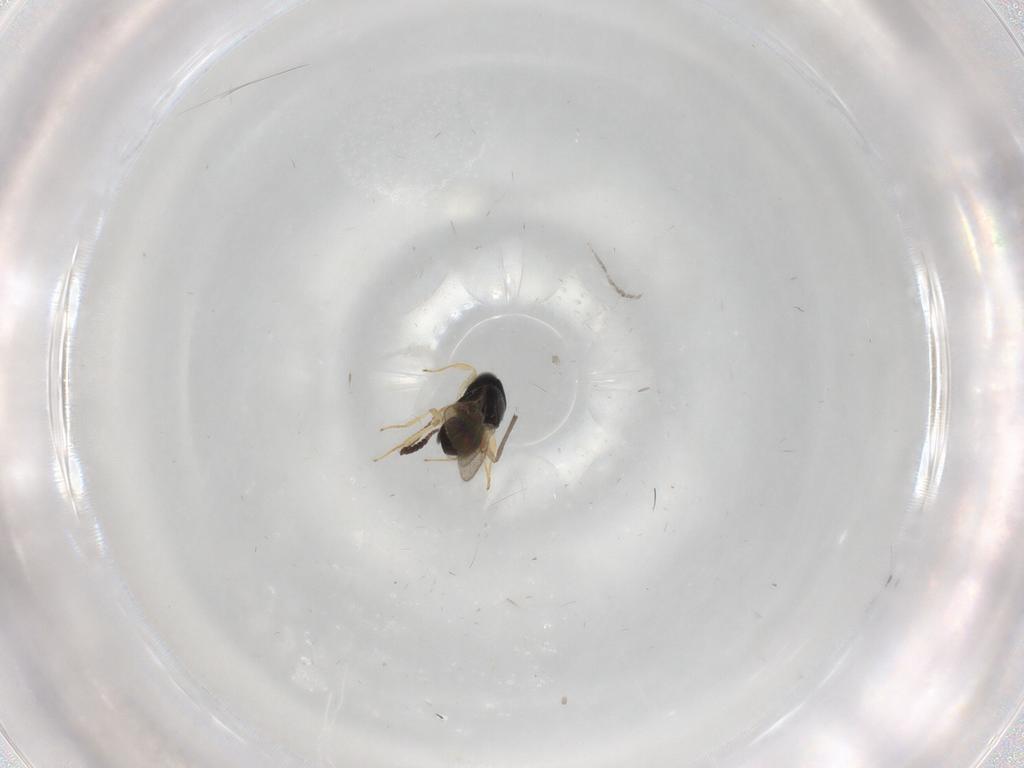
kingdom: Animalia
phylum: Arthropoda
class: Insecta
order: Hymenoptera
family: Scelionidae
